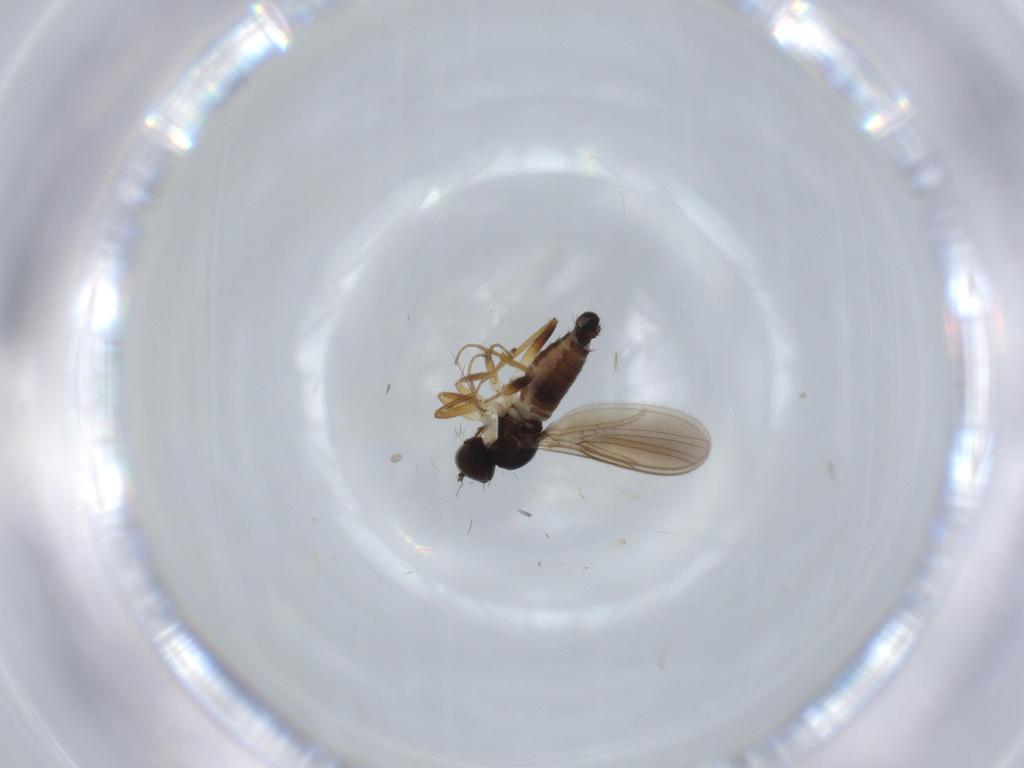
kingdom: Animalia
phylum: Arthropoda
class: Insecta
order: Diptera
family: Hybotidae
